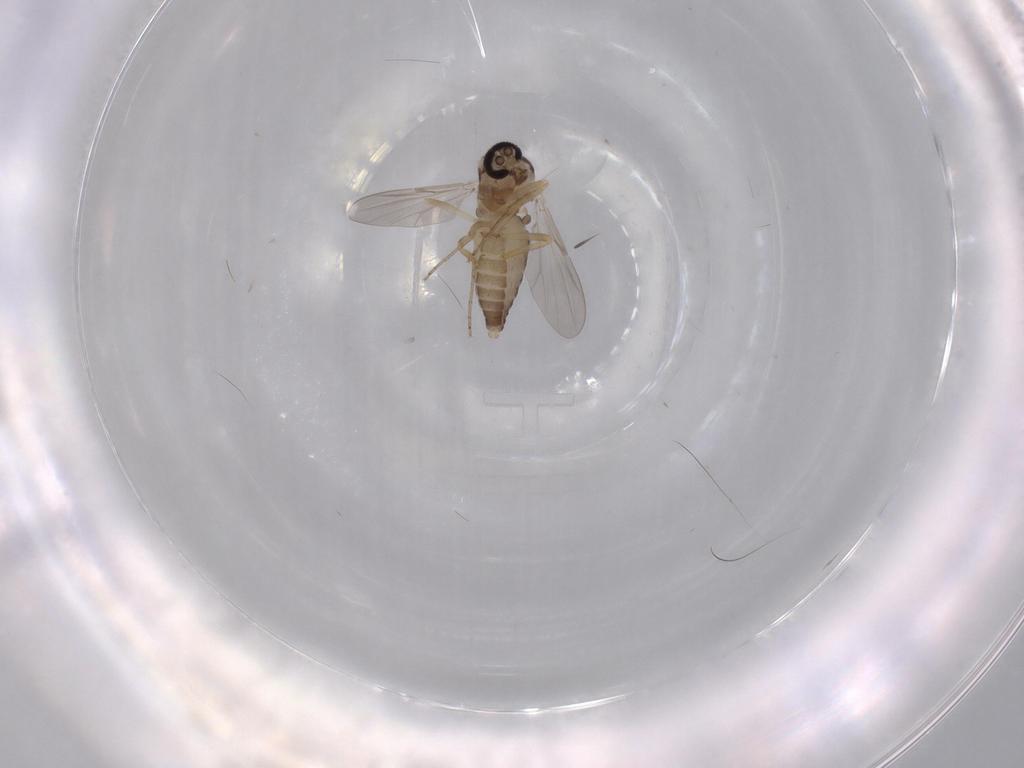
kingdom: Animalia
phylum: Arthropoda
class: Insecta
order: Diptera
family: Ceratopogonidae
